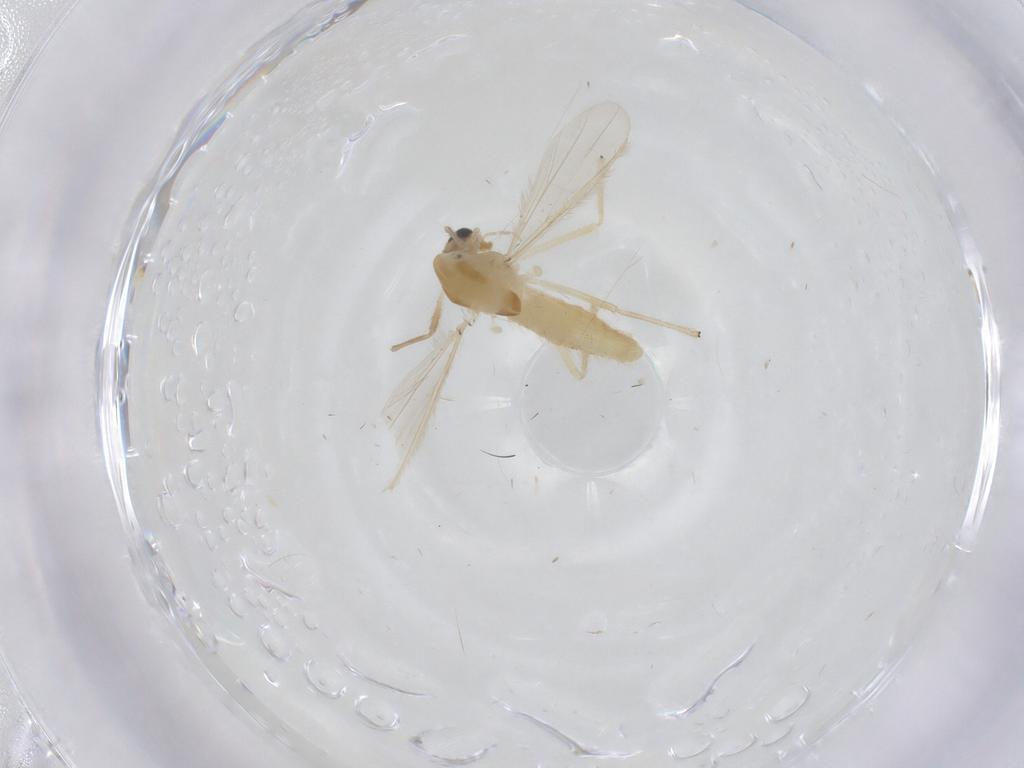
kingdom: Animalia
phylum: Arthropoda
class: Insecta
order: Diptera
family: Chironomidae
